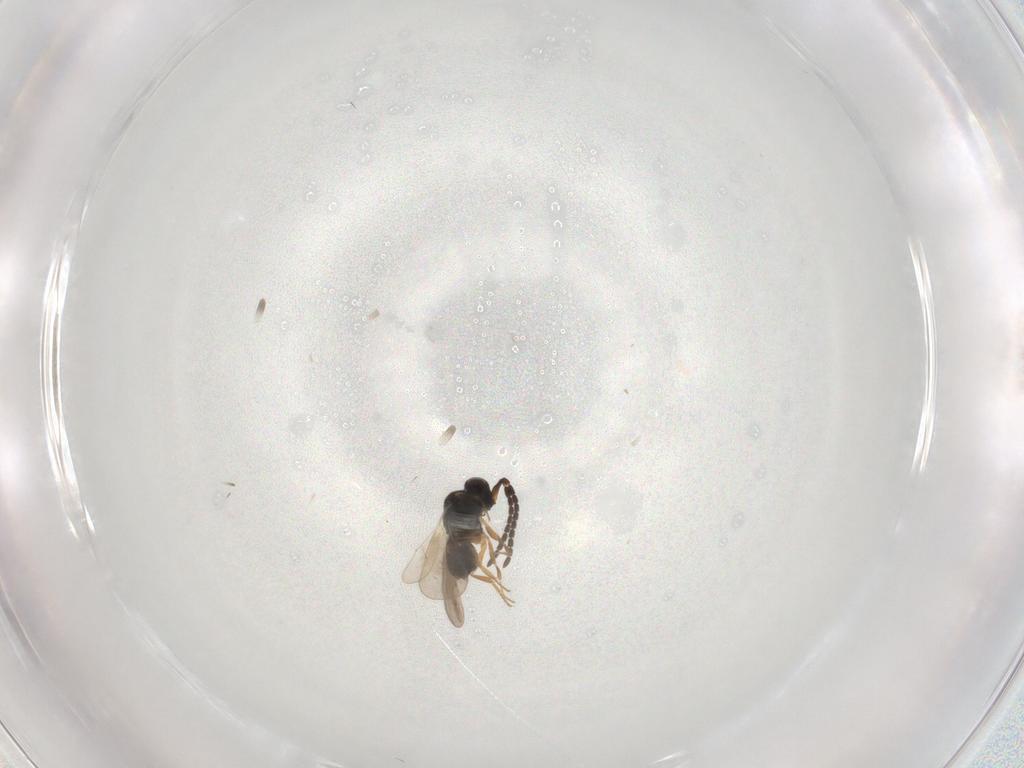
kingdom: Animalia
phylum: Arthropoda
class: Insecta
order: Hymenoptera
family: Ceraphronidae
